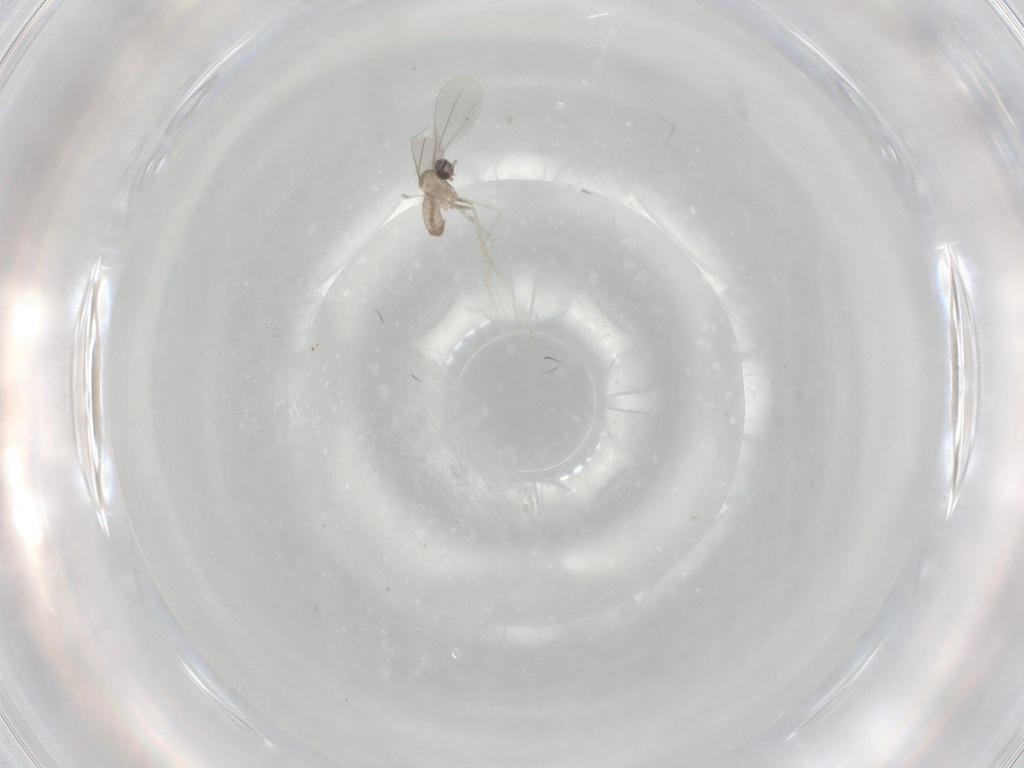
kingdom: Animalia
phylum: Arthropoda
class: Insecta
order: Diptera
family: Cecidomyiidae
